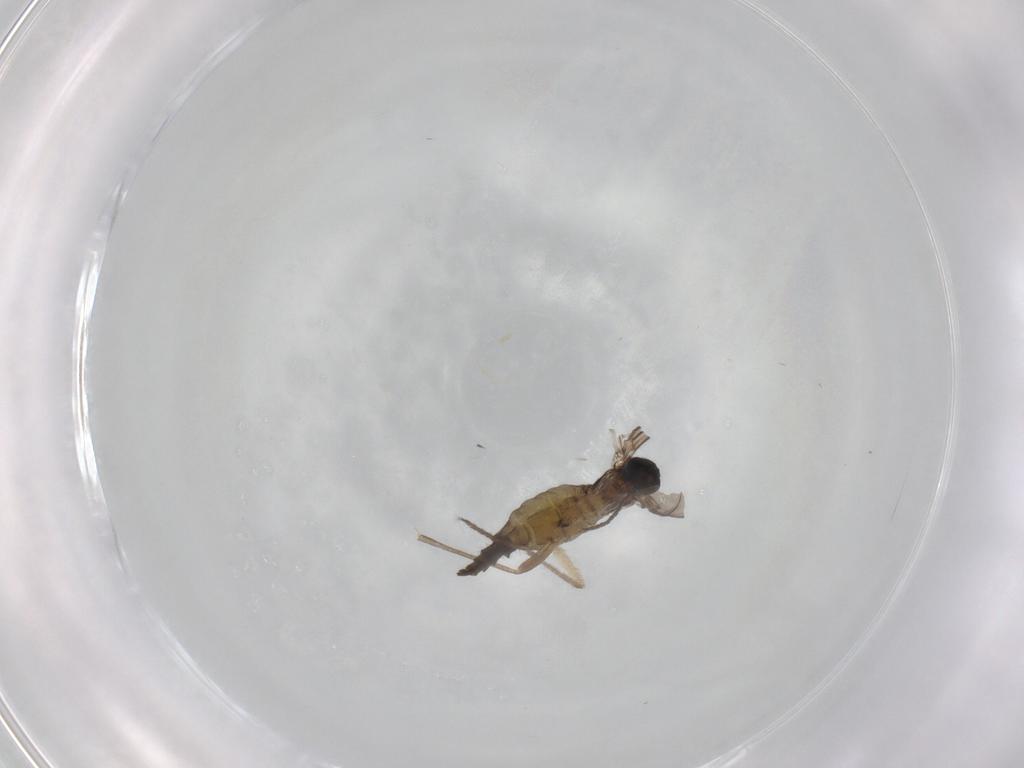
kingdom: Animalia
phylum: Arthropoda
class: Insecta
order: Diptera
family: Sciaridae
